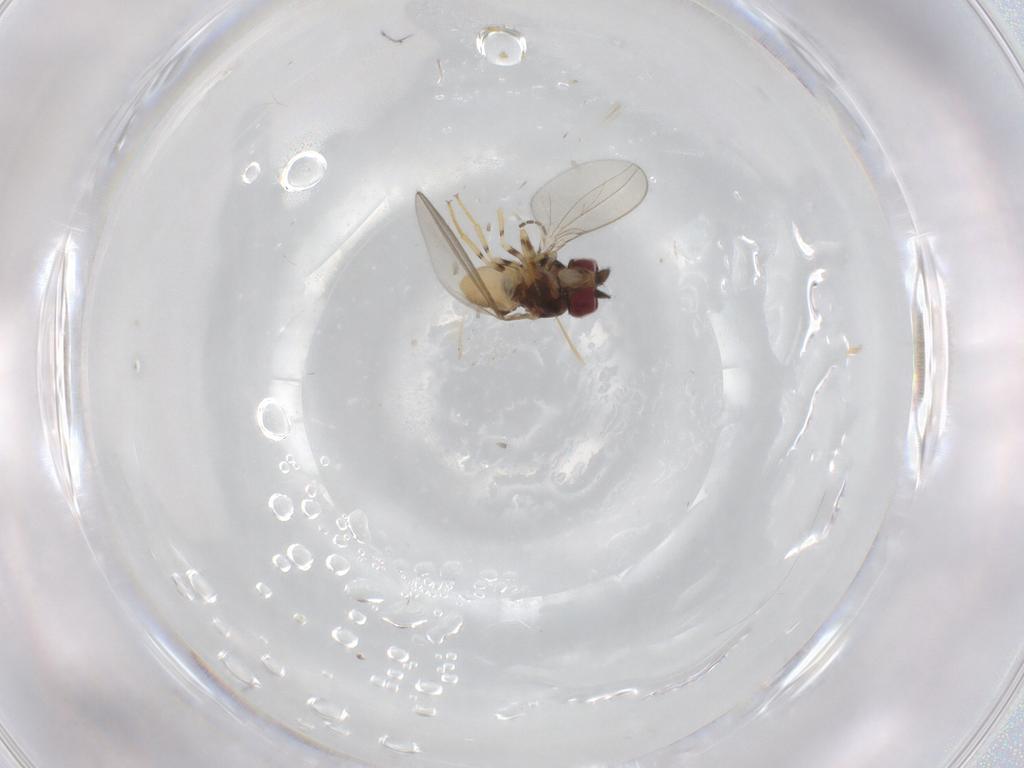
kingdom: Animalia
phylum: Arthropoda
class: Insecta
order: Diptera
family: Asteiidae
